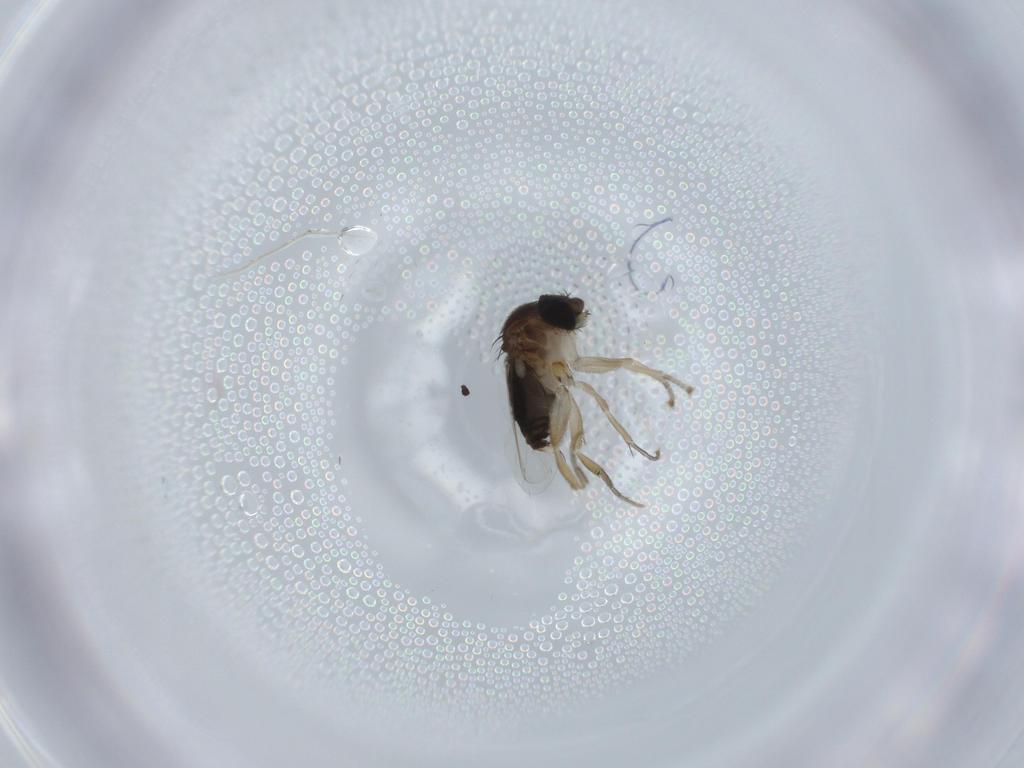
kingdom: Animalia
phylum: Arthropoda
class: Insecta
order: Diptera
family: Phoridae
